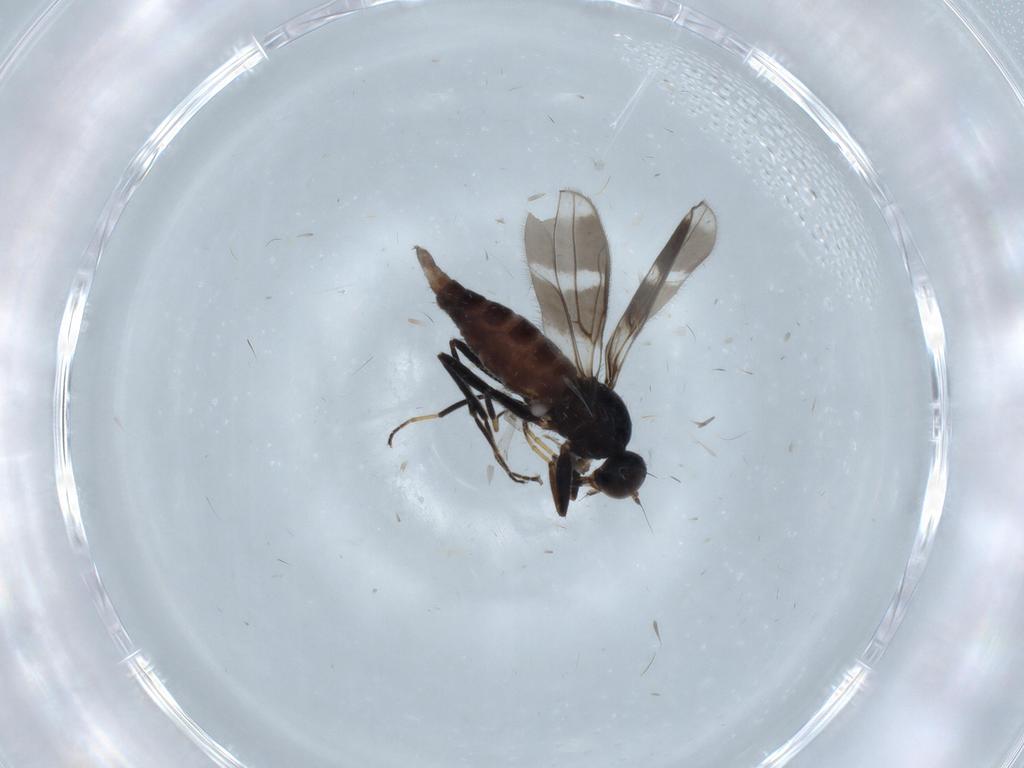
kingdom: Animalia
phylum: Arthropoda
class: Insecta
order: Diptera
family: Hybotidae
